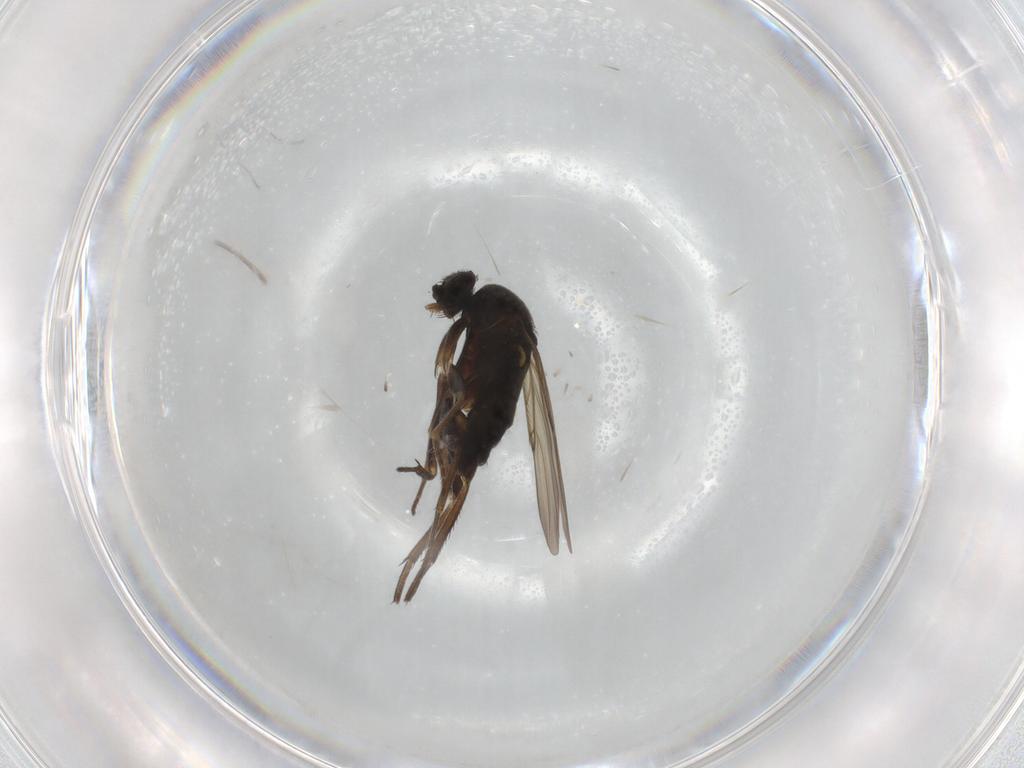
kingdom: Animalia
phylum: Arthropoda
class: Insecta
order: Diptera
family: Phoridae
